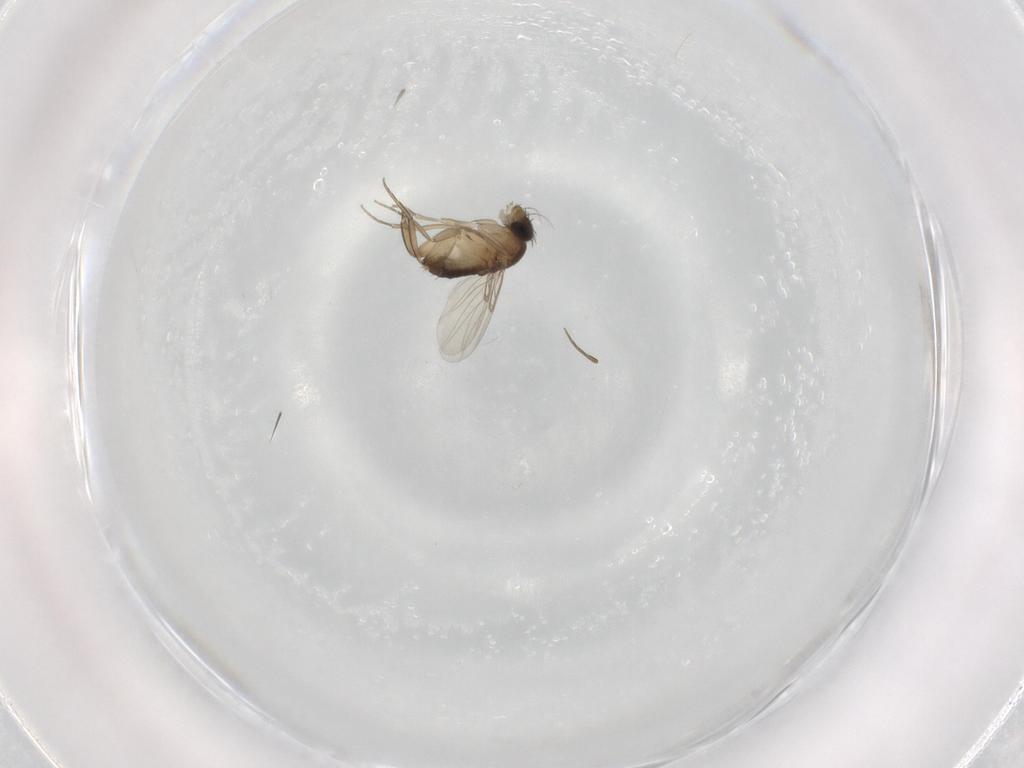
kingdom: Animalia
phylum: Arthropoda
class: Insecta
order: Diptera
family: Phoridae
